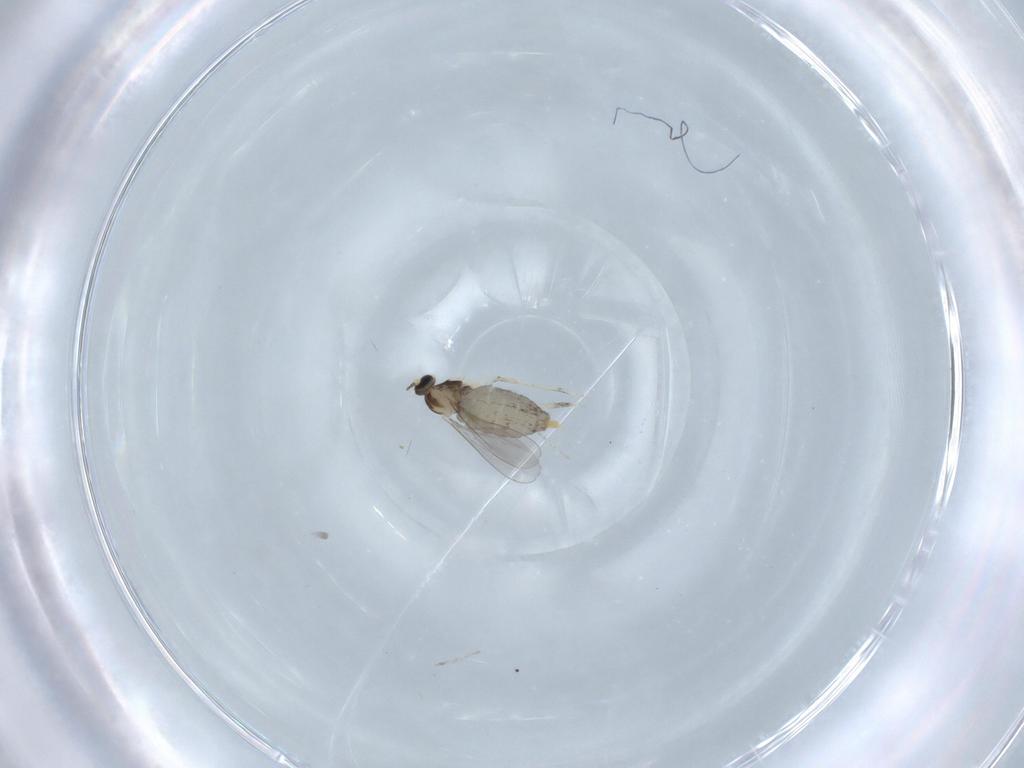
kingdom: Animalia
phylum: Arthropoda
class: Insecta
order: Diptera
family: Cecidomyiidae
